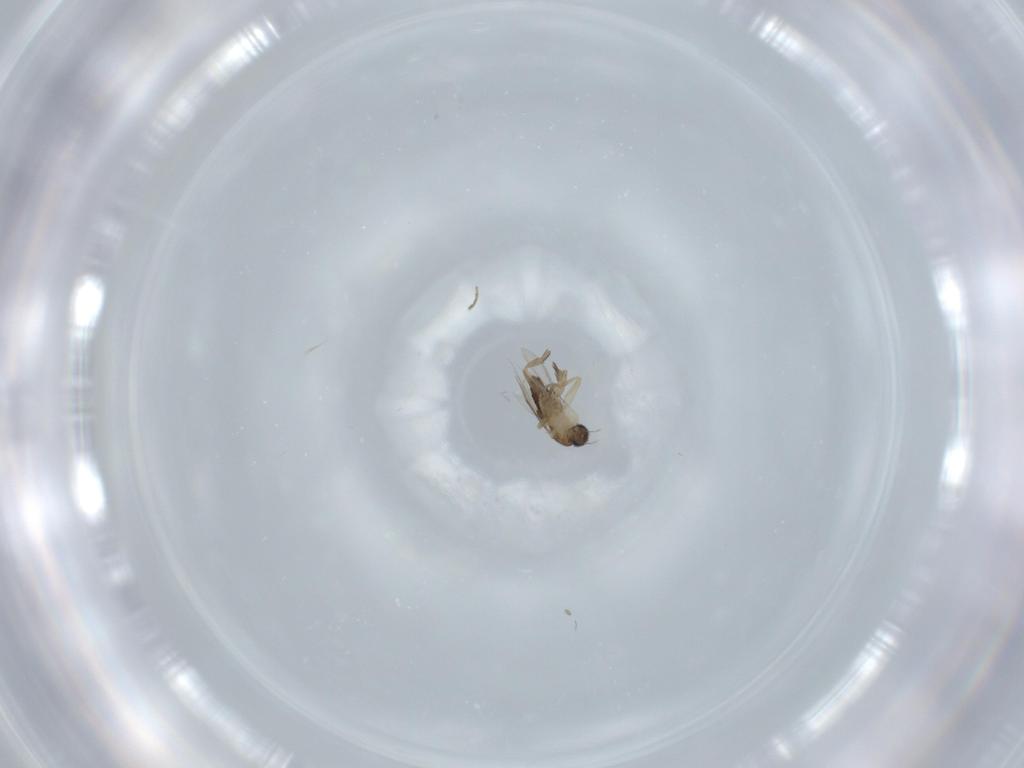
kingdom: Animalia
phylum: Arthropoda
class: Insecta
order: Diptera
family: Phoridae
